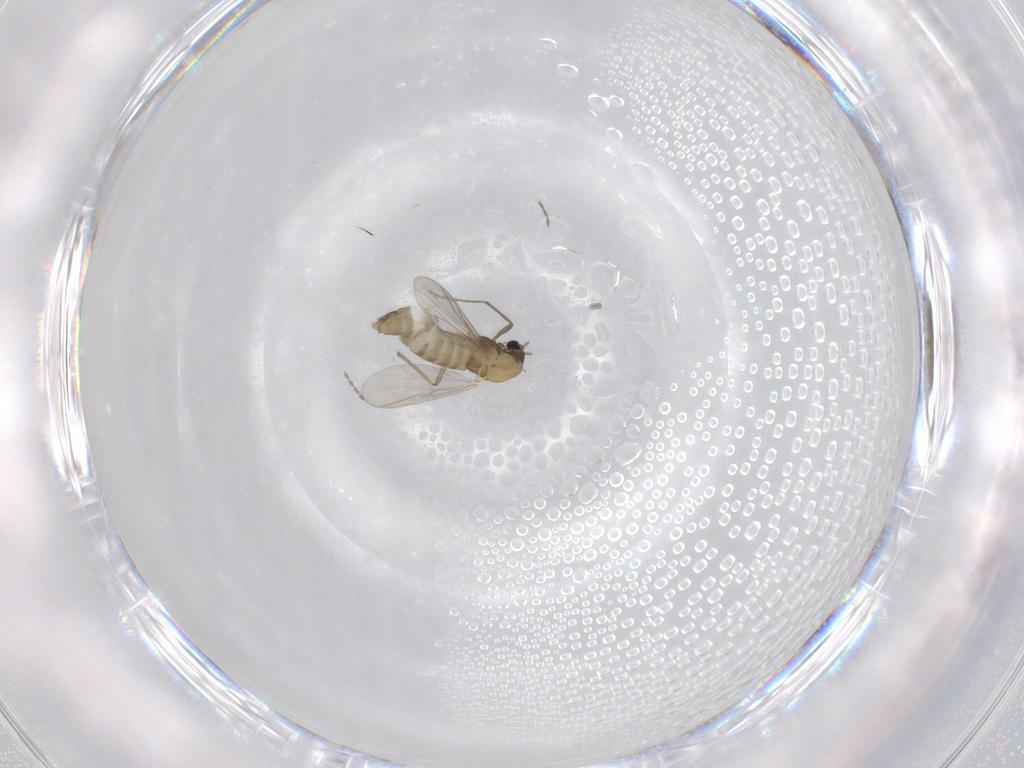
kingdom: Animalia
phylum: Arthropoda
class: Insecta
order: Diptera
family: Chironomidae
